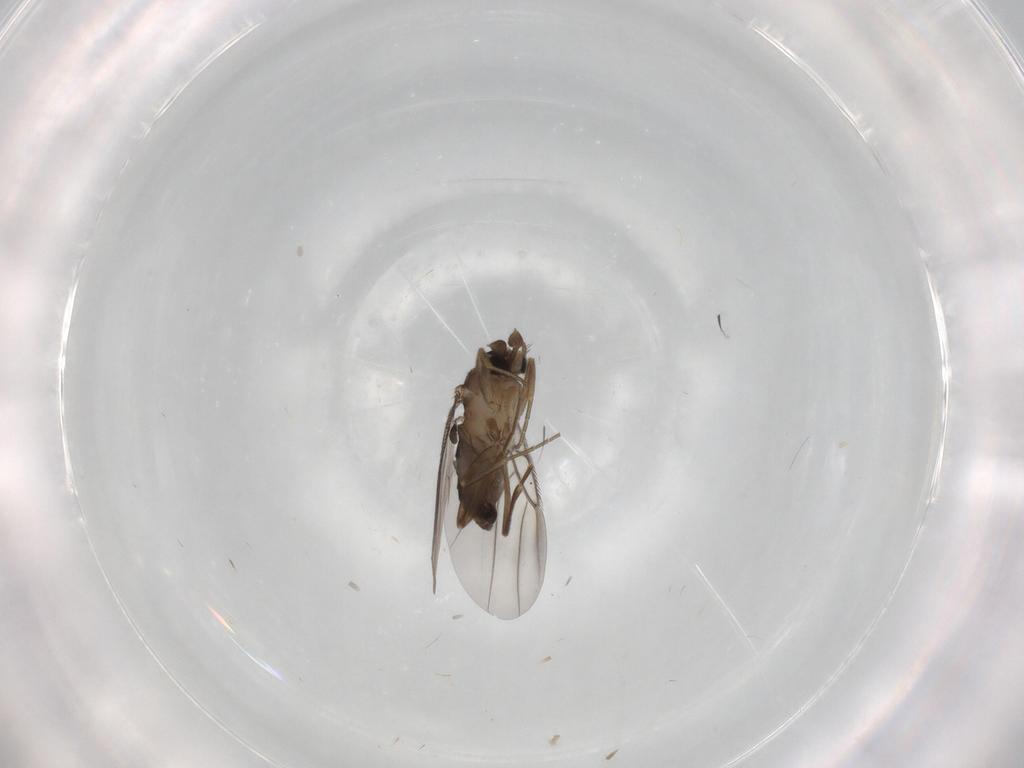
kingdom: Animalia
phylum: Arthropoda
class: Insecta
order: Diptera
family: Phoridae
